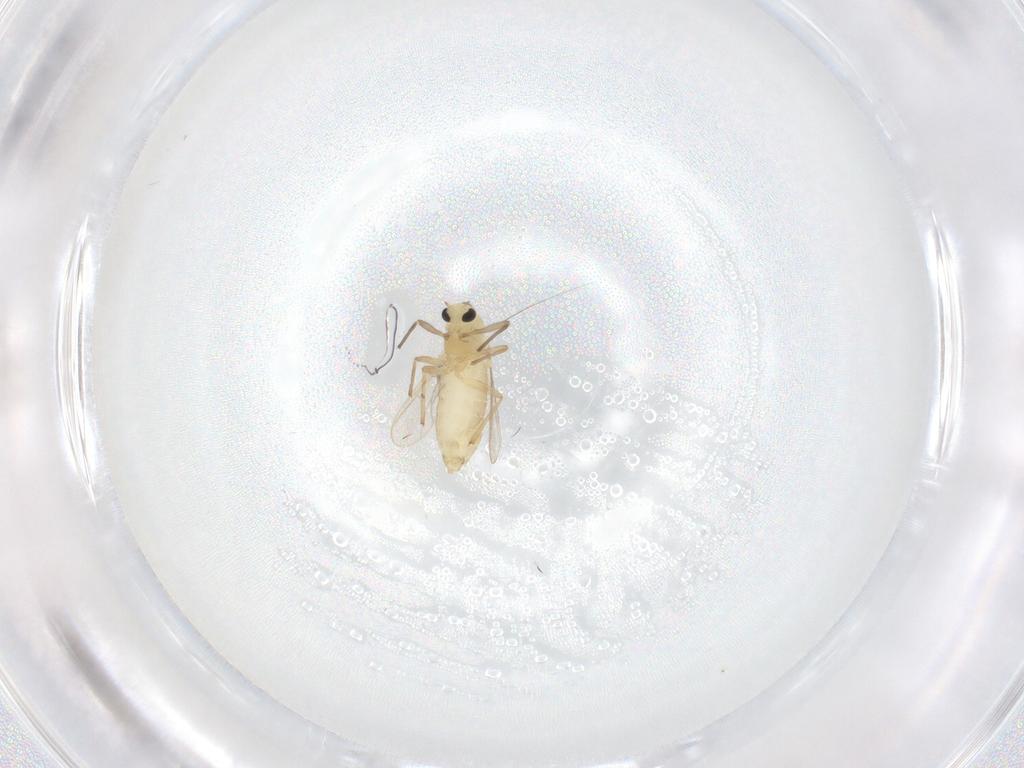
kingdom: Animalia
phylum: Arthropoda
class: Insecta
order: Diptera
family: Chironomidae
